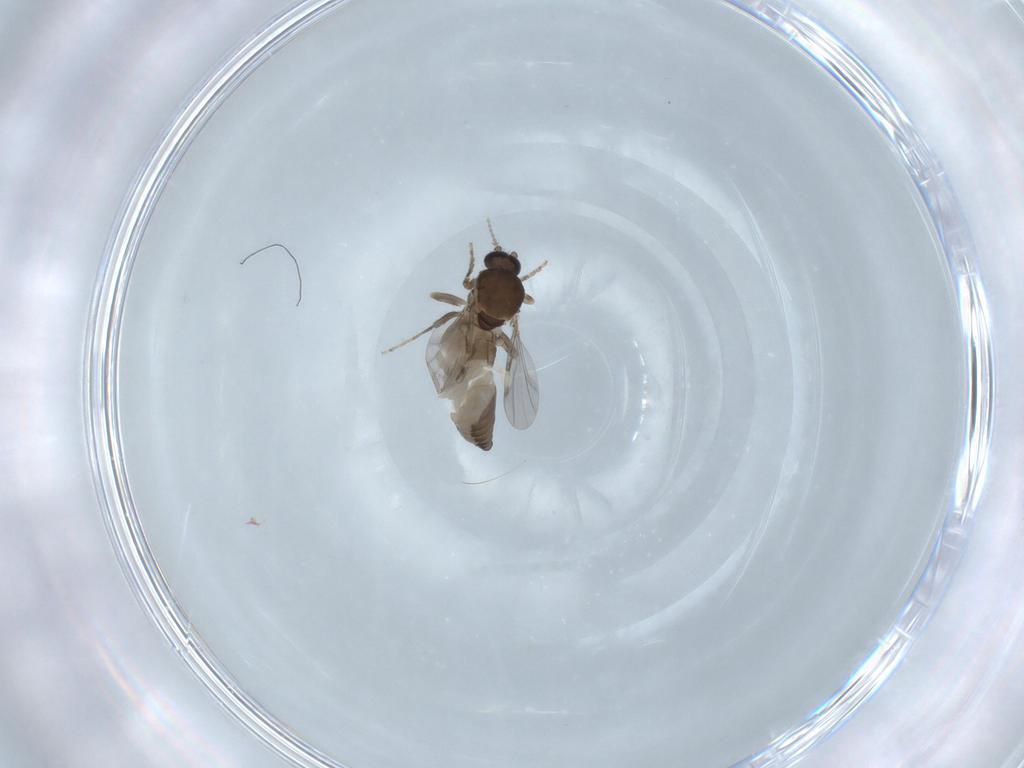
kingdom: Animalia
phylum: Arthropoda
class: Insecta
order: Diptera
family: Ceratopogonidae
